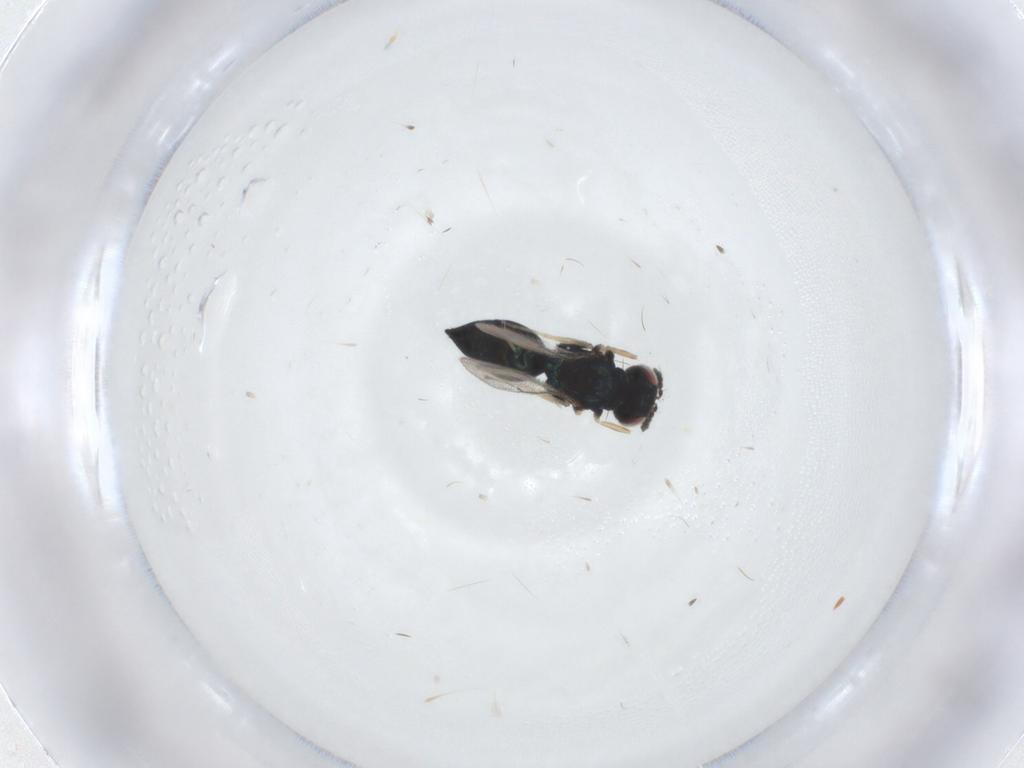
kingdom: Animalia
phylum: Arthropoda
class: Insecta
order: Hymenoptera
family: Eulophidae
